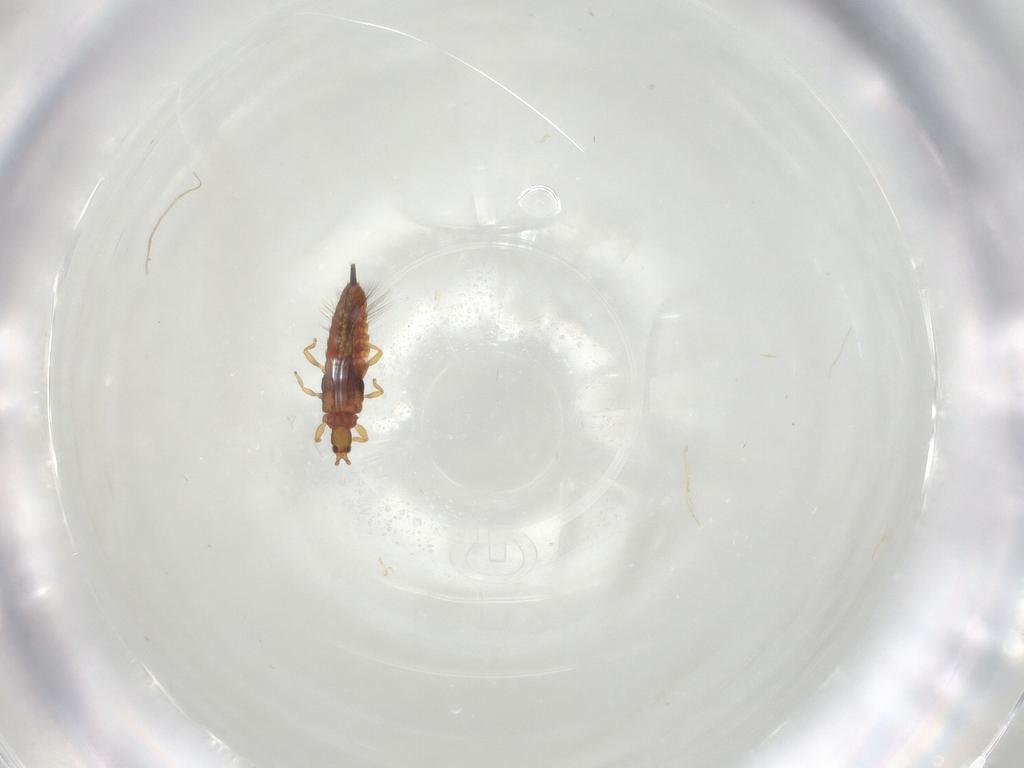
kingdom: Animalia
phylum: Arthropoda
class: Insecta
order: Thysanoptera
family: Phlaeothripidae
